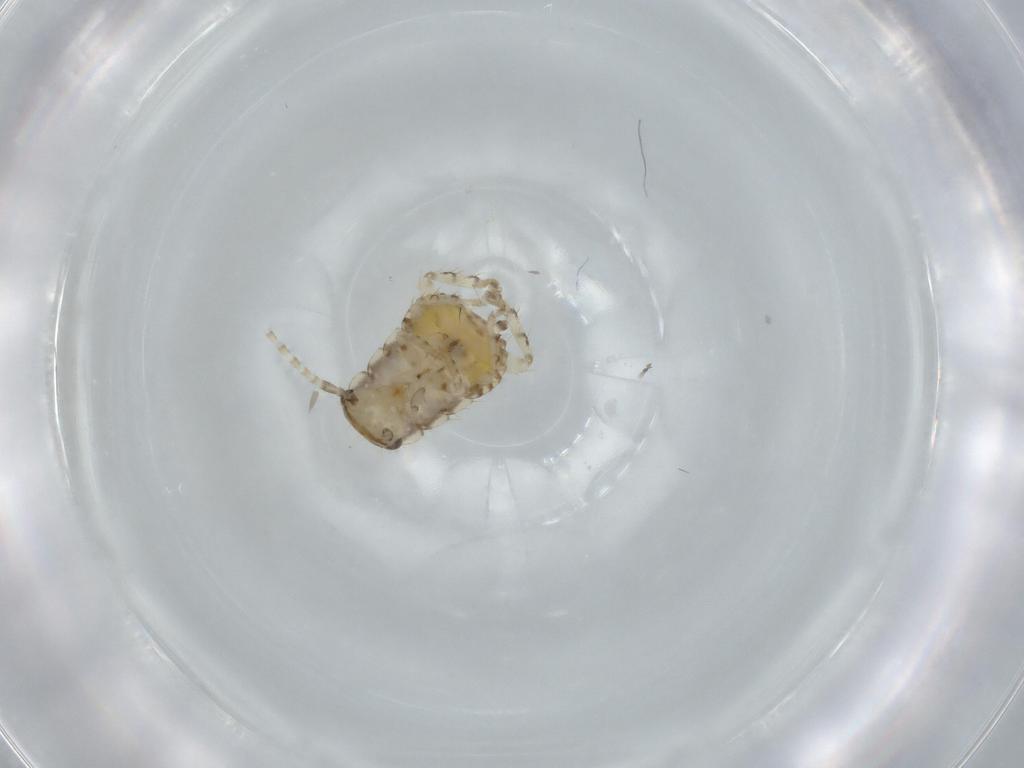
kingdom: Animalia
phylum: Arthropoda
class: Insecta
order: Blattodea
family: Ectobiidae
